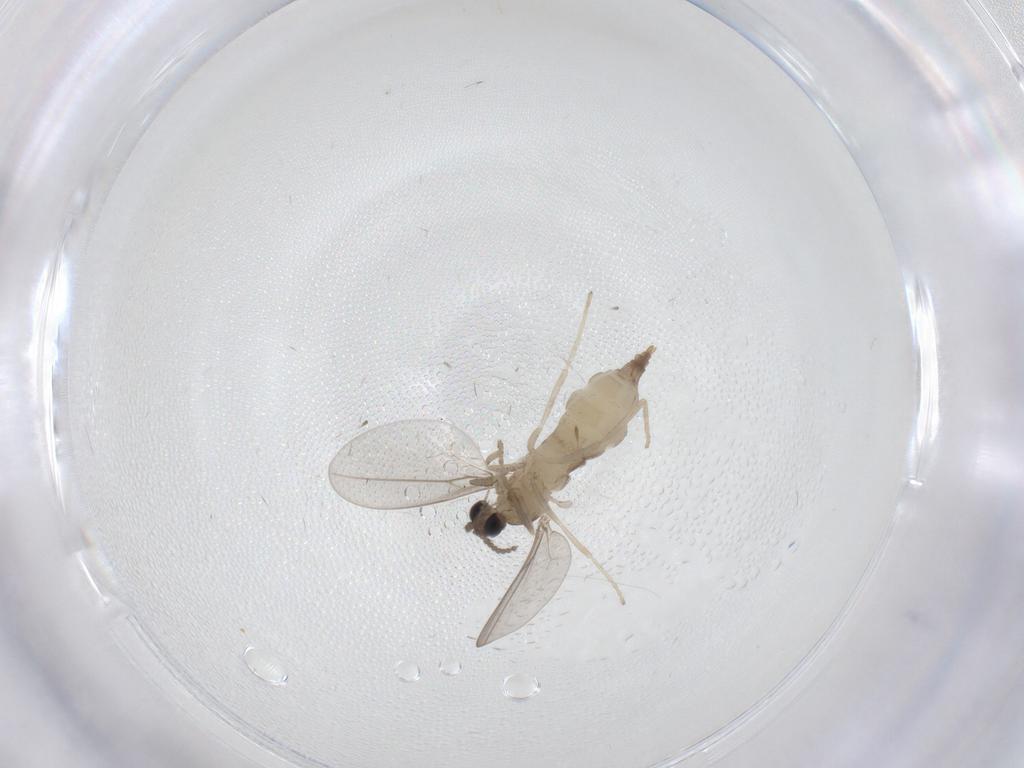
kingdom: Animalia
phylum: Arthropoda
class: Insecta
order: Diptera
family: Cecidomyiidae
